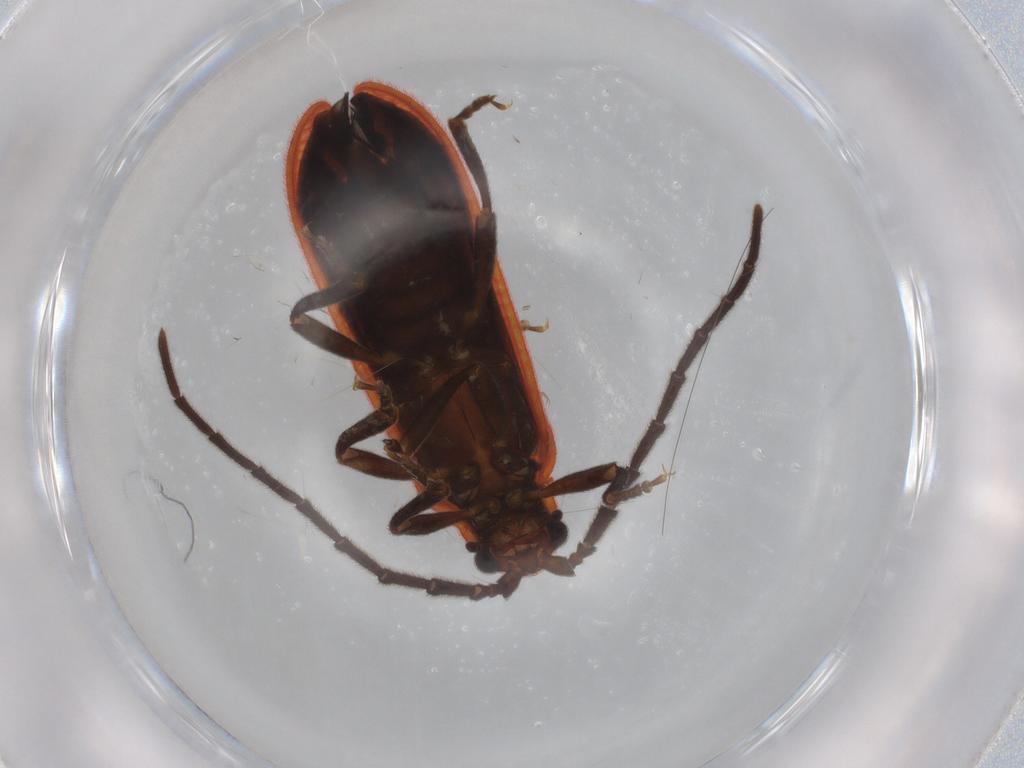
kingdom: Animalia
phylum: Arthropoda
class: Insecta
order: Coleoptera
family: Lycidae
